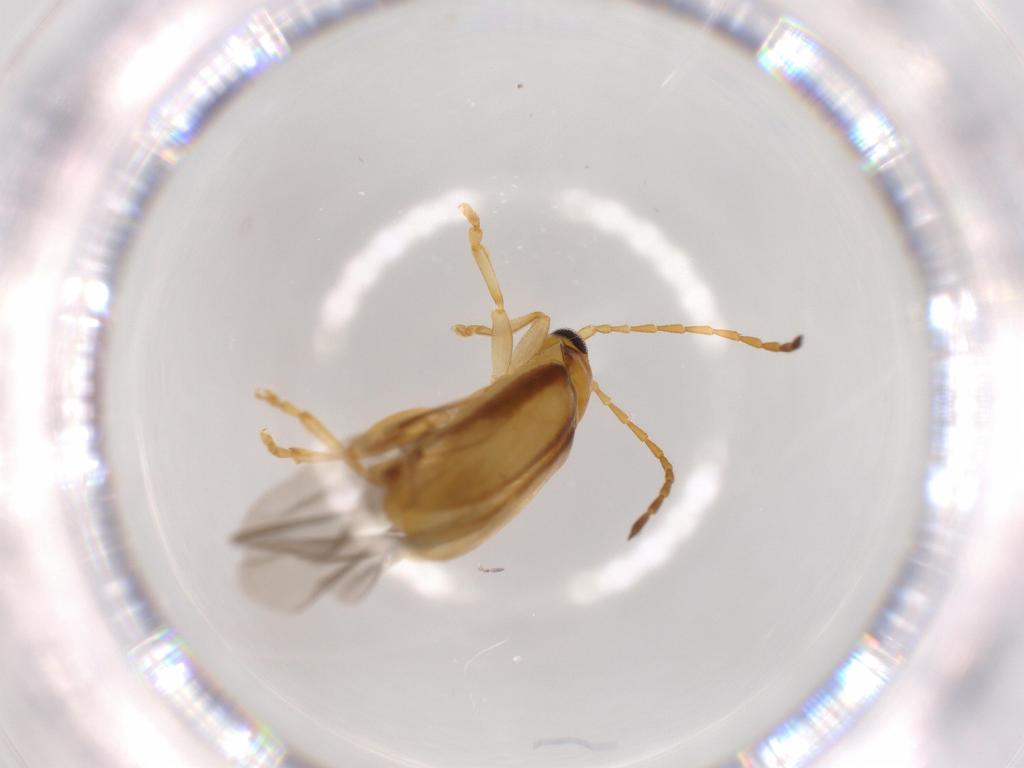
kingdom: Animalia
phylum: Arthropoda
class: Insecta
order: Coleoptera
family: Chrysomelidae
